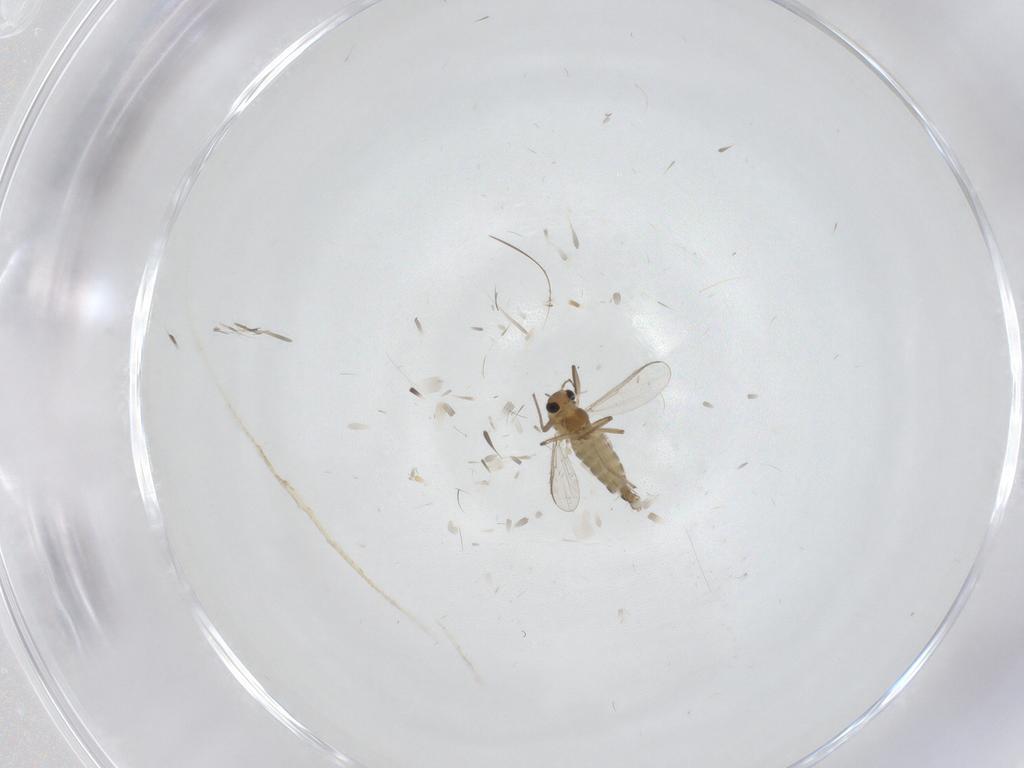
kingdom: Animalia
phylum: Arthropoda
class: Insecta
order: Diptera
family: Chironomidae
